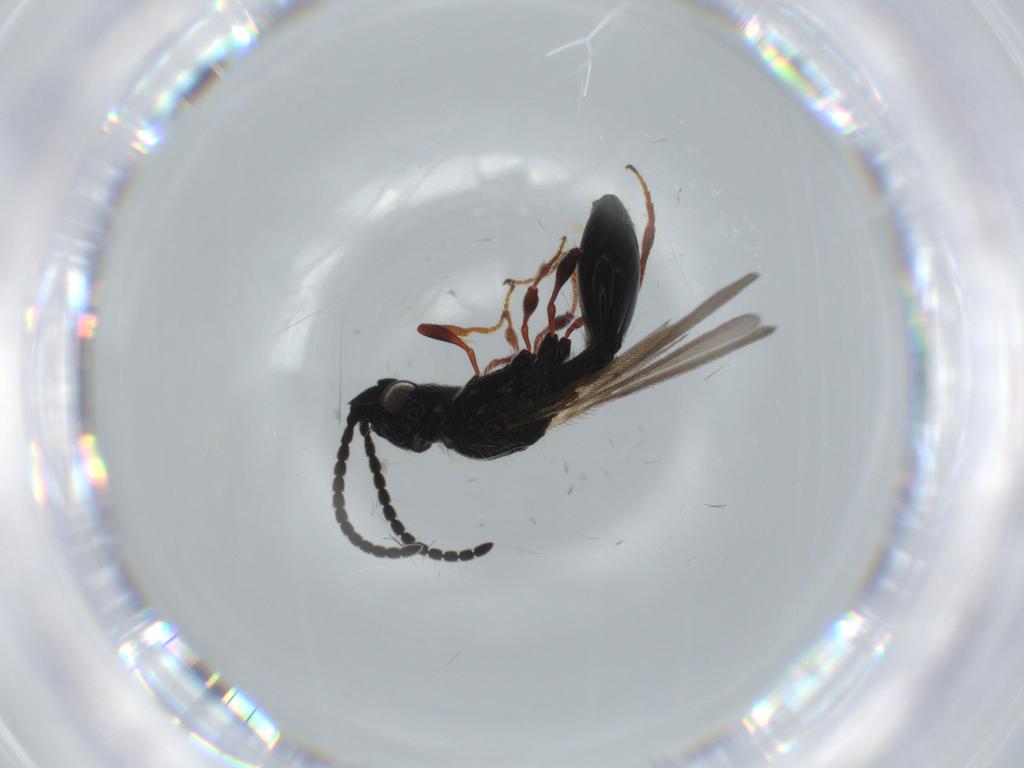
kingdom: Animalia
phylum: Arthropoda
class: Insecta
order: Hymenoptera
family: Diapriidae
